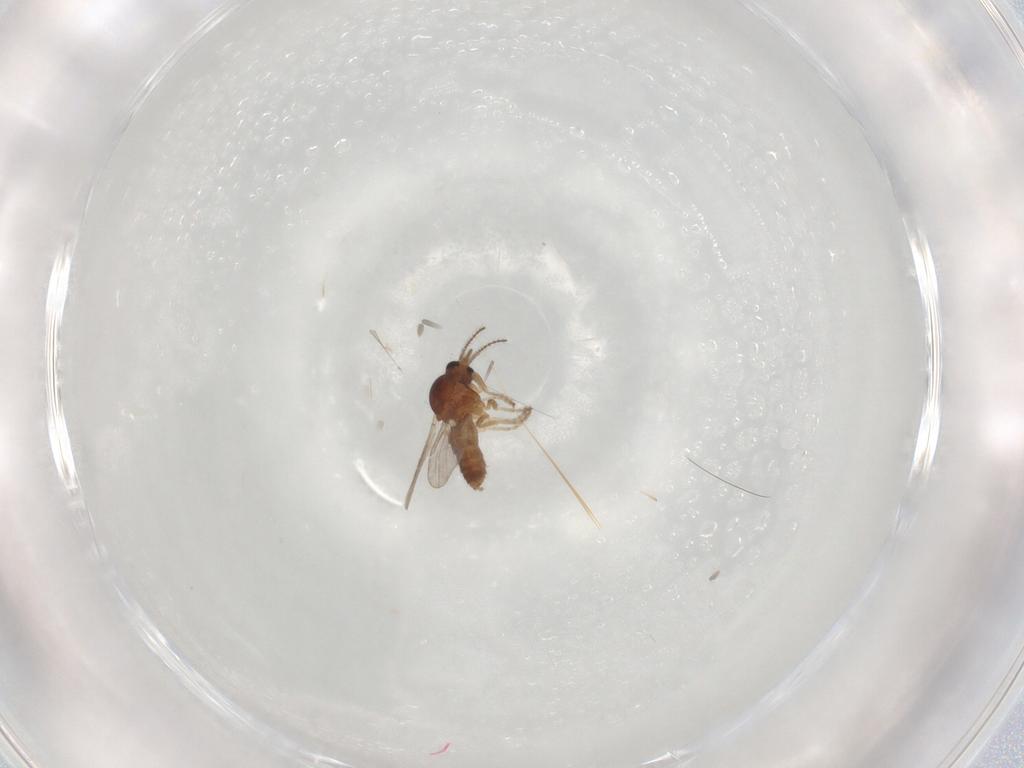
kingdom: Animalia
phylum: Arthropoda
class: Insecta
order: Diptera
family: Ceratopogonidae
